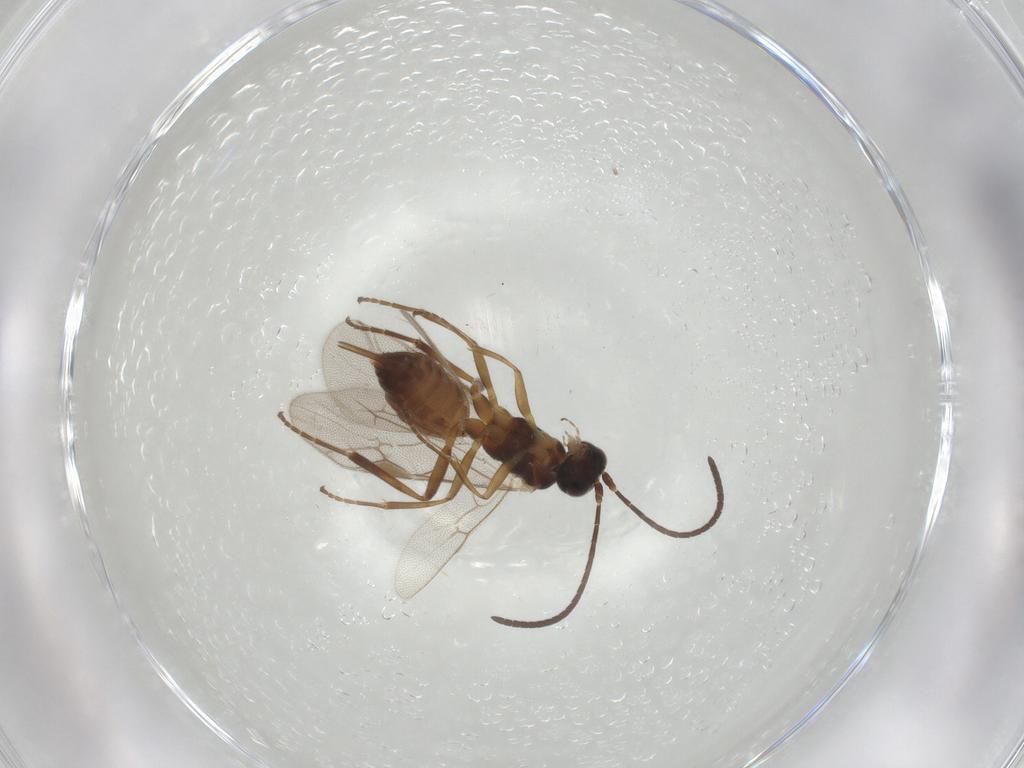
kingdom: Animalia
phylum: Arthropoda
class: Insecta
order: Hymenoptera
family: Ichneumonidae
